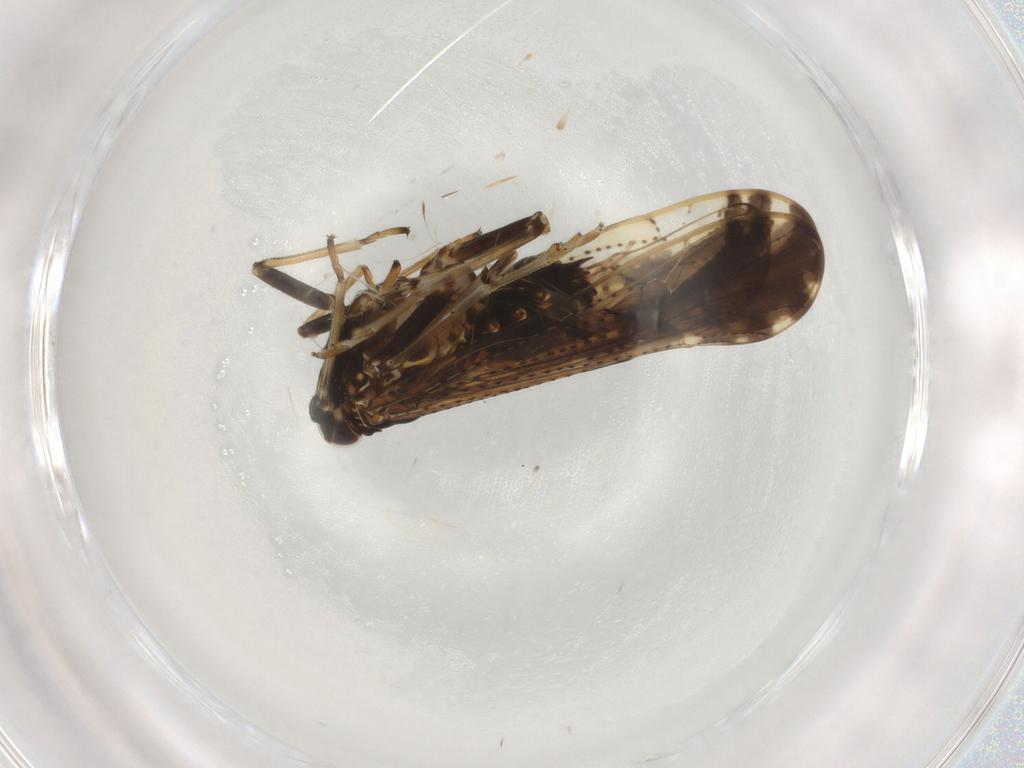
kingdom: Animalia
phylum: Arthropoda
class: Insecta
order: Hemiptera
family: Delphacidae
